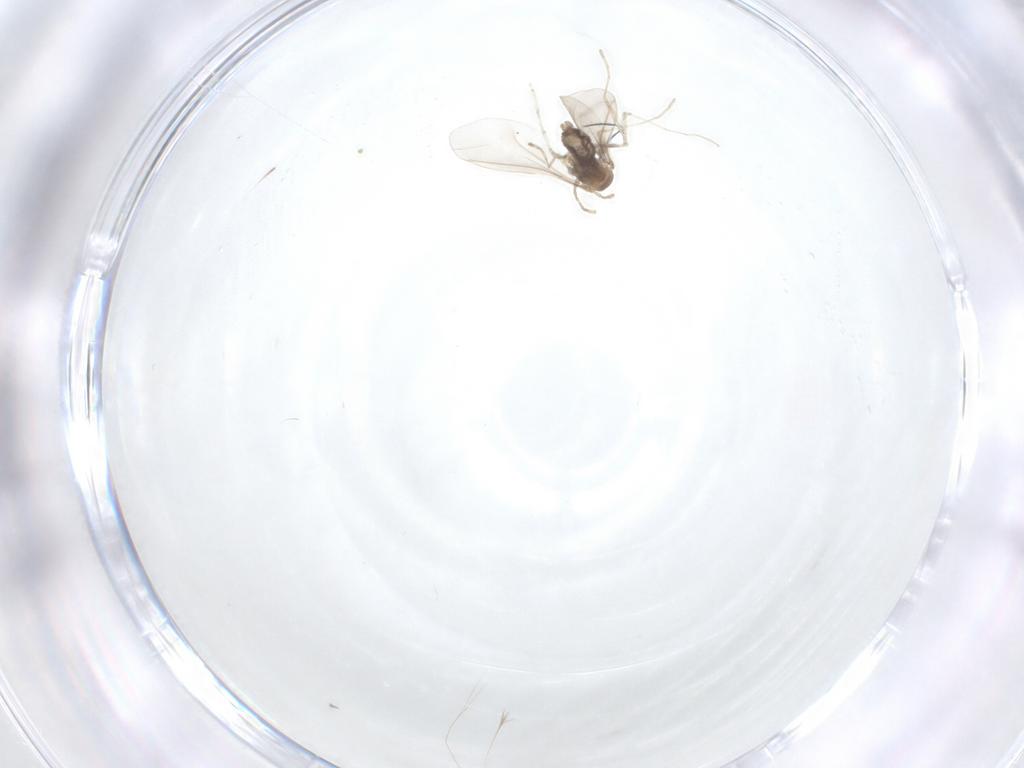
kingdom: Animalia
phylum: Arthropoda
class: Insecta
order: Diptera
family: Cecidomyiidae
